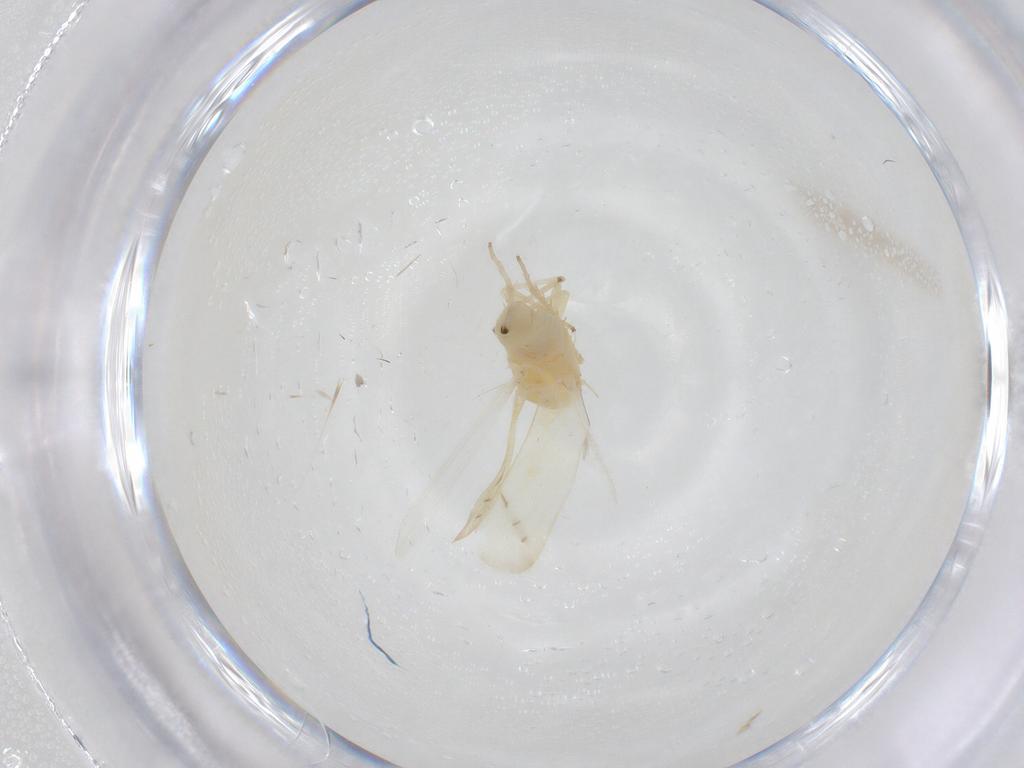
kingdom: Animalia
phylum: Arthropoda
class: Insecta
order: Hemiptera
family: Cicadellidae
